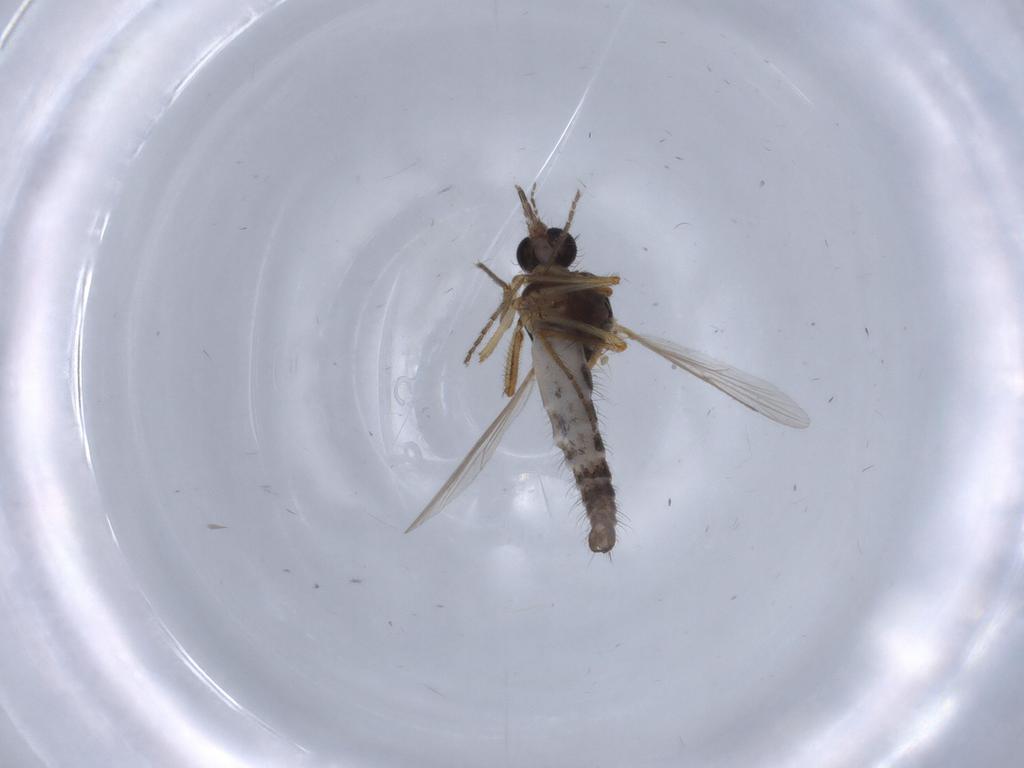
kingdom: Animalia
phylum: Arthropoda
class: Insecta
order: Diptera
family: Ceratopogonidae
